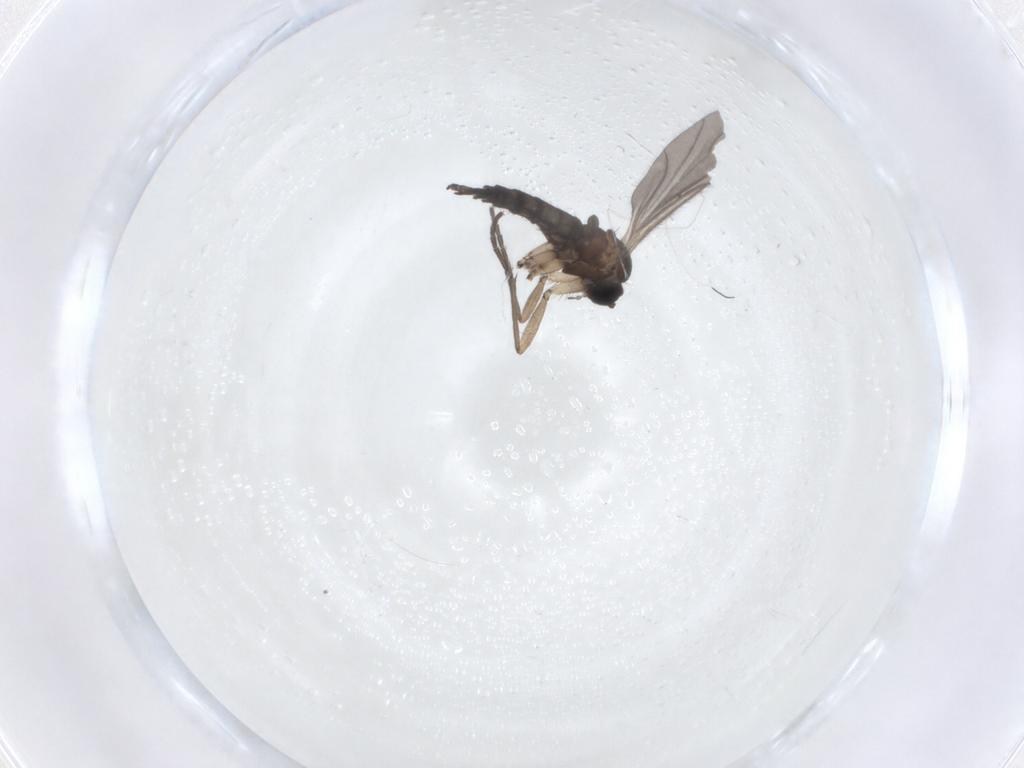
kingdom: Animalia
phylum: Arthropoda
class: Insecta
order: Diptera
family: Sciaridae
